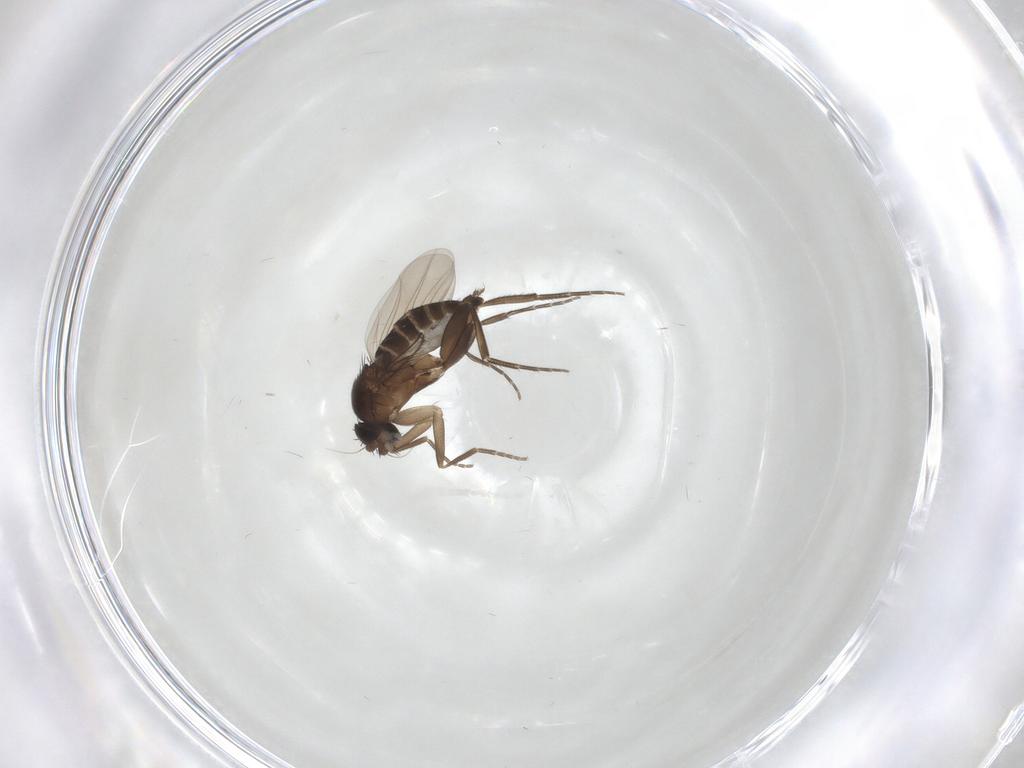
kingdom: Animalia
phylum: Arthropoda
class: Insecta
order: Diptera
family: Phoridae
